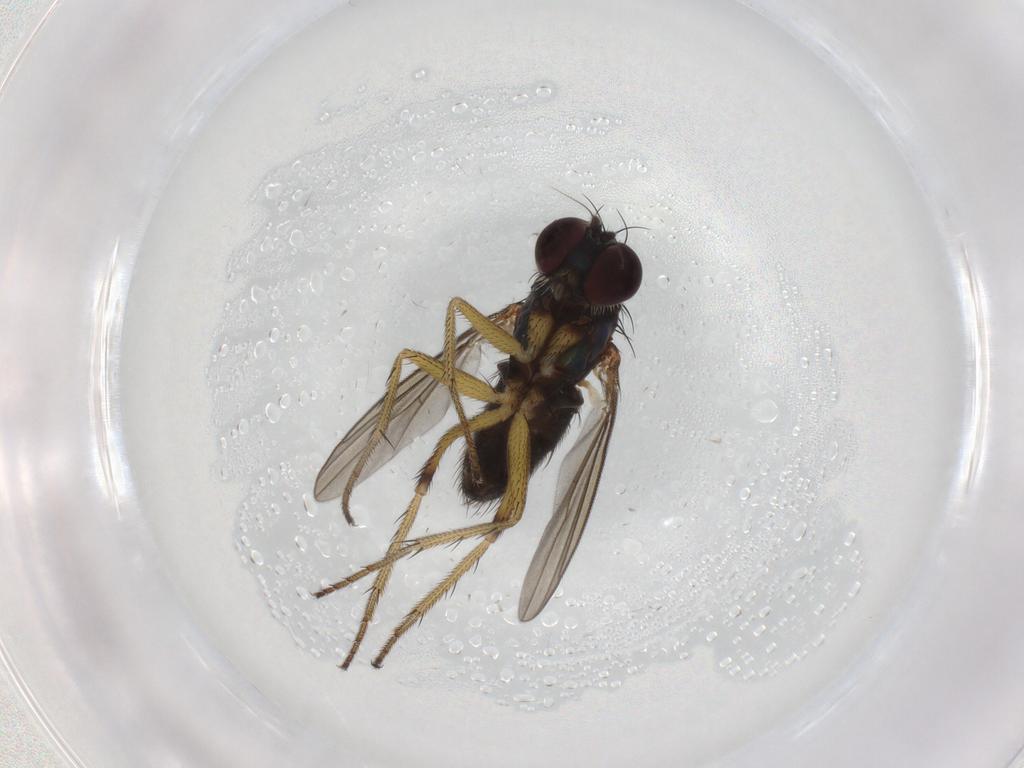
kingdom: Animalia
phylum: Arthropoda
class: Insecta
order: Diptera
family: Dolichopodidae
